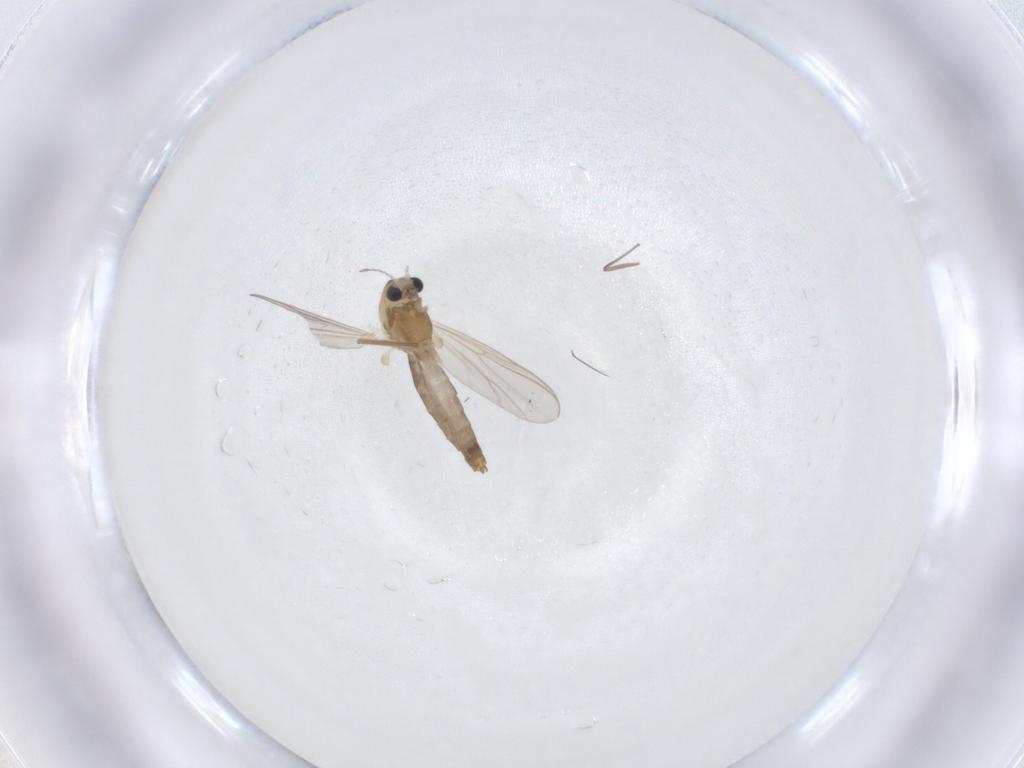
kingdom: Animalia
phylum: Arthropoda
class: Insecta
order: Diptera
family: Chironomidae
